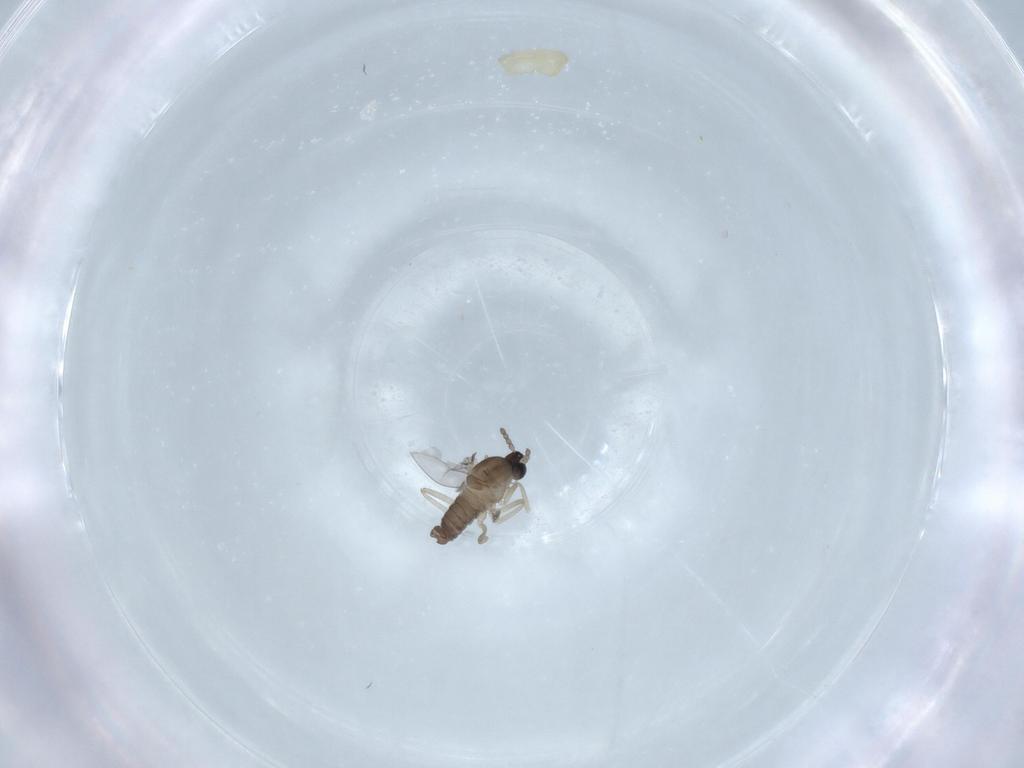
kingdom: Animalia
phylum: Arthropoda
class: Insecta
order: Diptera
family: Cecidomyiidae
